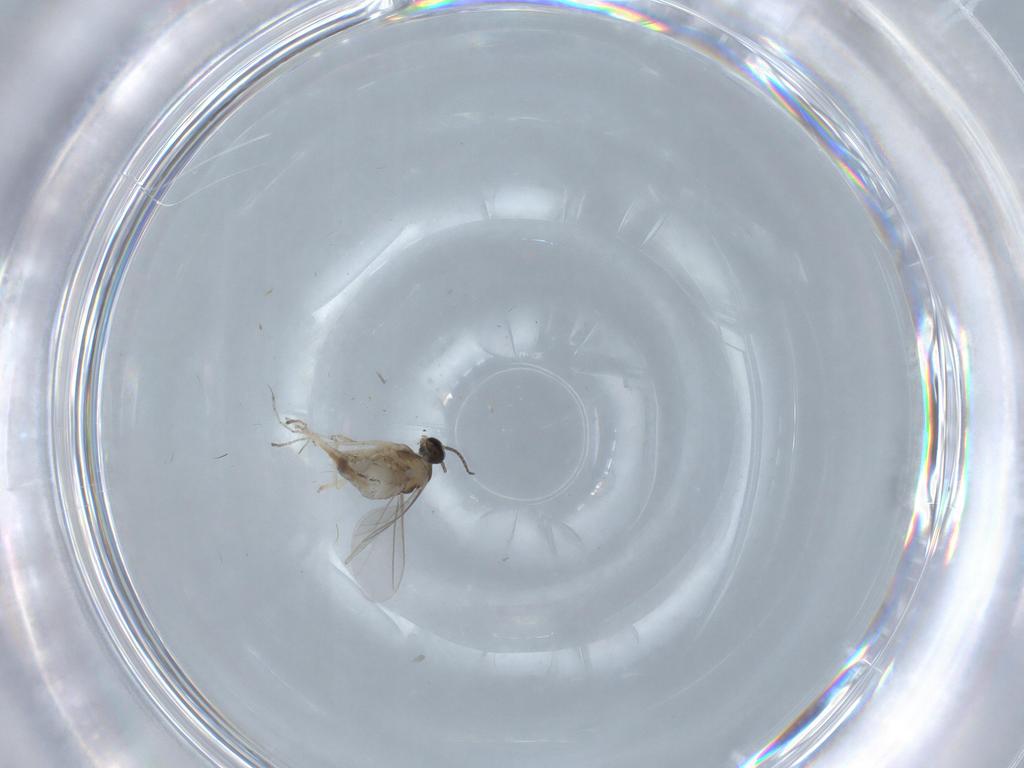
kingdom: Animalia
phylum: Arthropoda
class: Insecta
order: Diptera
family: Cecidomyiidae
